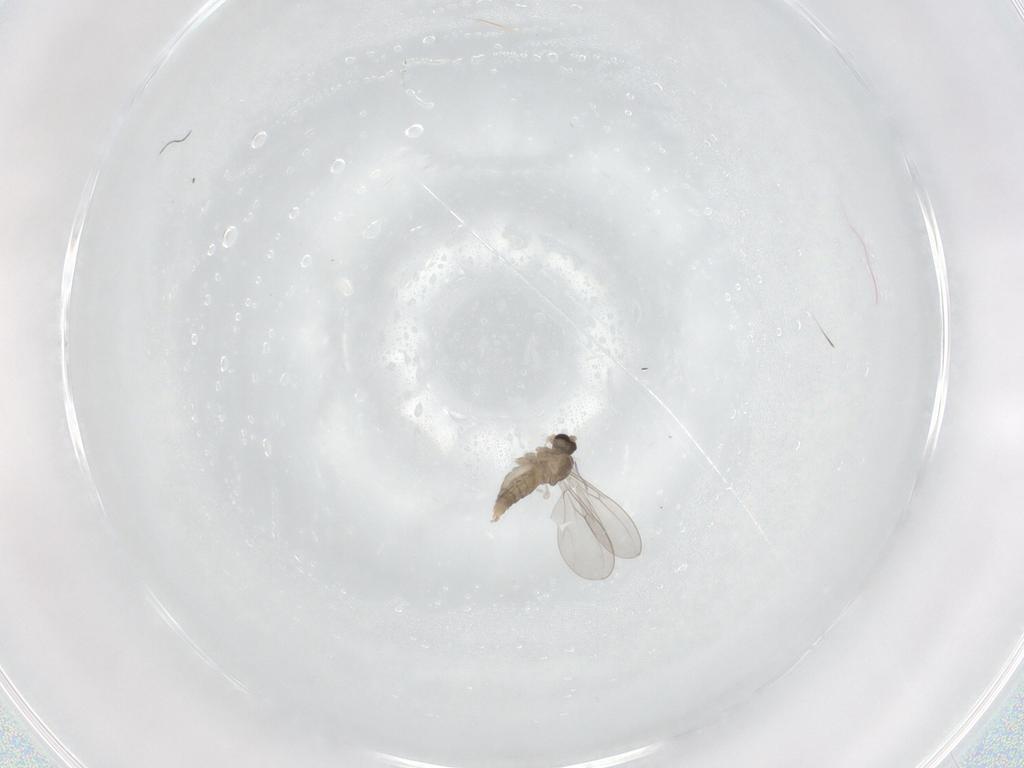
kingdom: Animalia
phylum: Arthropoda
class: Insecta
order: Diptera
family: Cecidomyiidae
